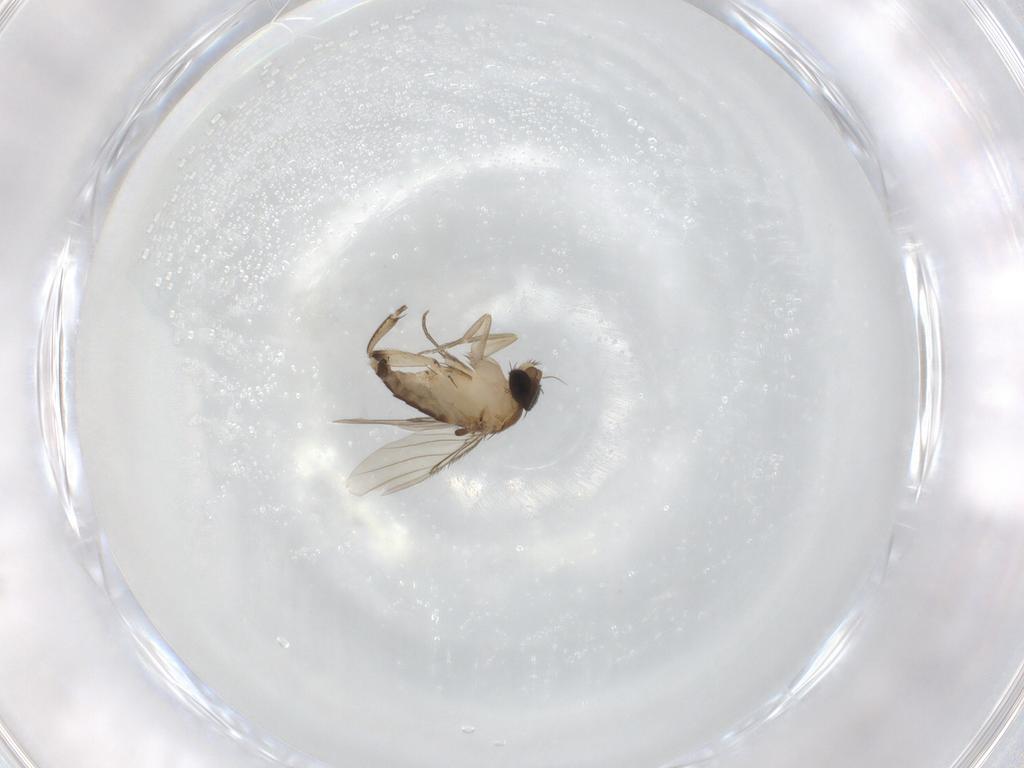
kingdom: Animalia
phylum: Arthropoda
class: Insecta
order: Diptera
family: Phoridae
